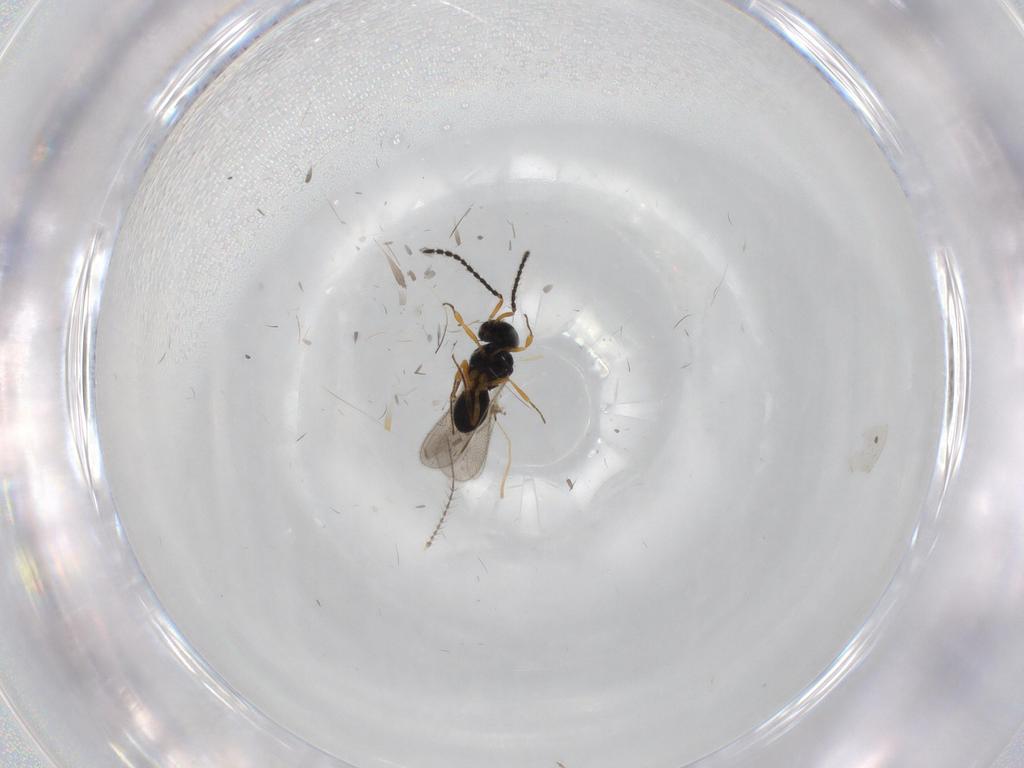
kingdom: Animalia
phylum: Arthropoda
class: Insecta
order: Hymenoptera
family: Scelionidae
